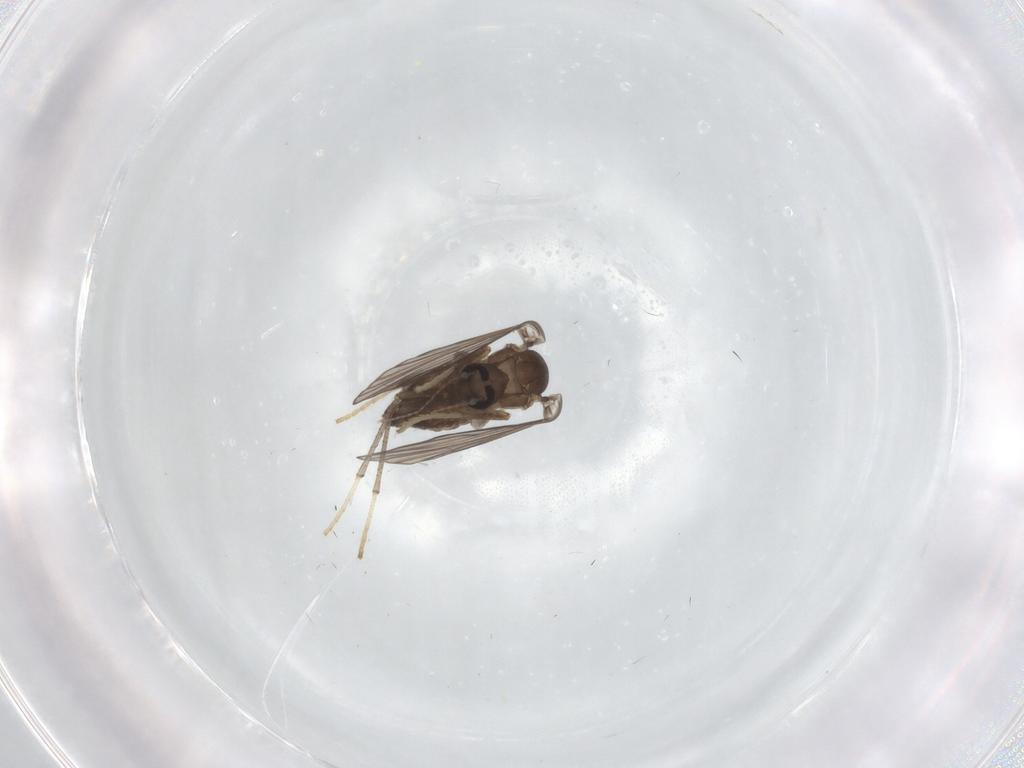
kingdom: Animalia
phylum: Arthropoda
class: Insecta
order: Diptera
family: Psychodidae
